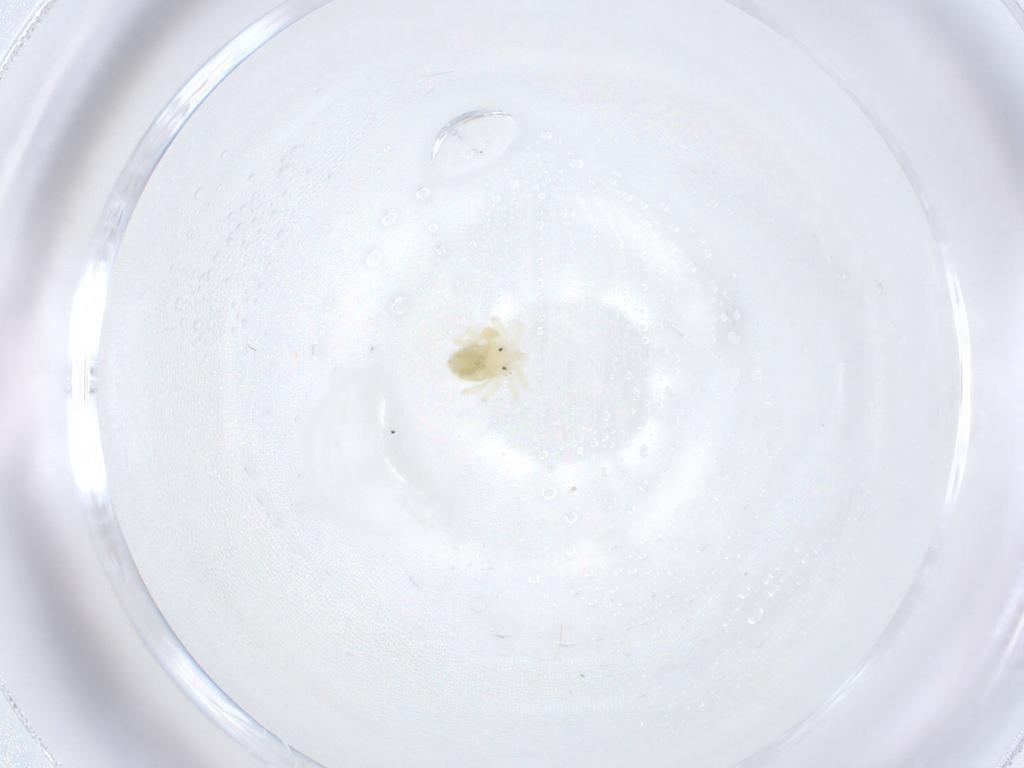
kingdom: Animalia
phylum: Arthropoda
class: Arachnida
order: Trombidiformes
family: Anystidae
